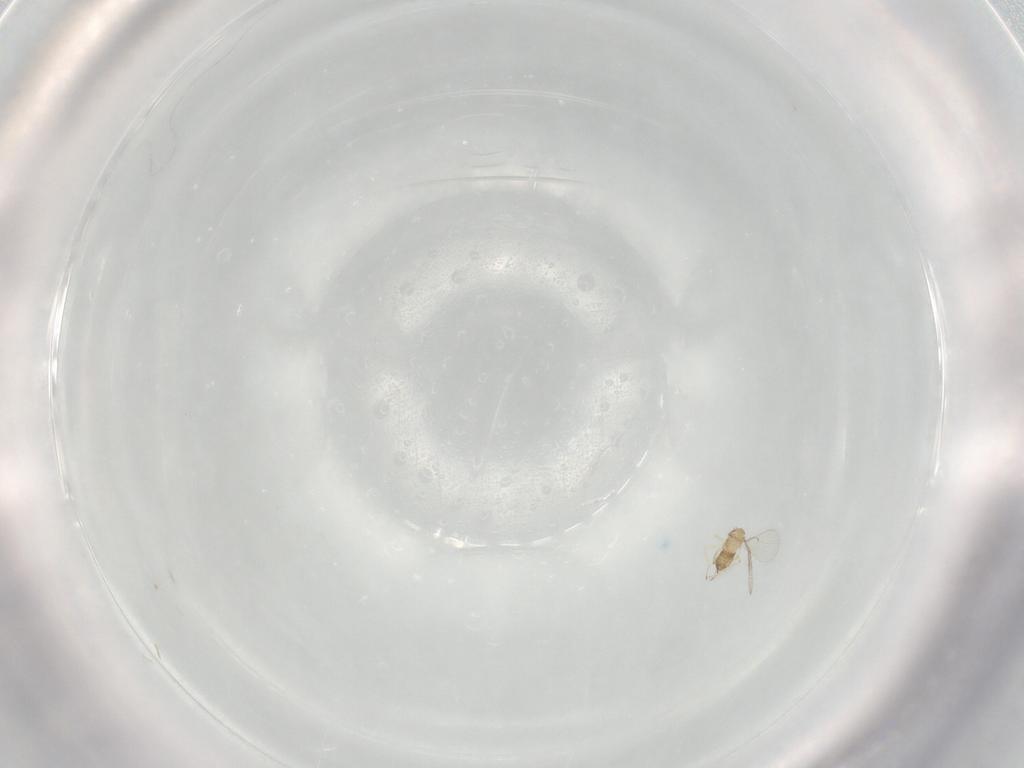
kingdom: Animalia
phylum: Arthropoda
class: Insecta
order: Hymenoptera
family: Trichogrammatidae
